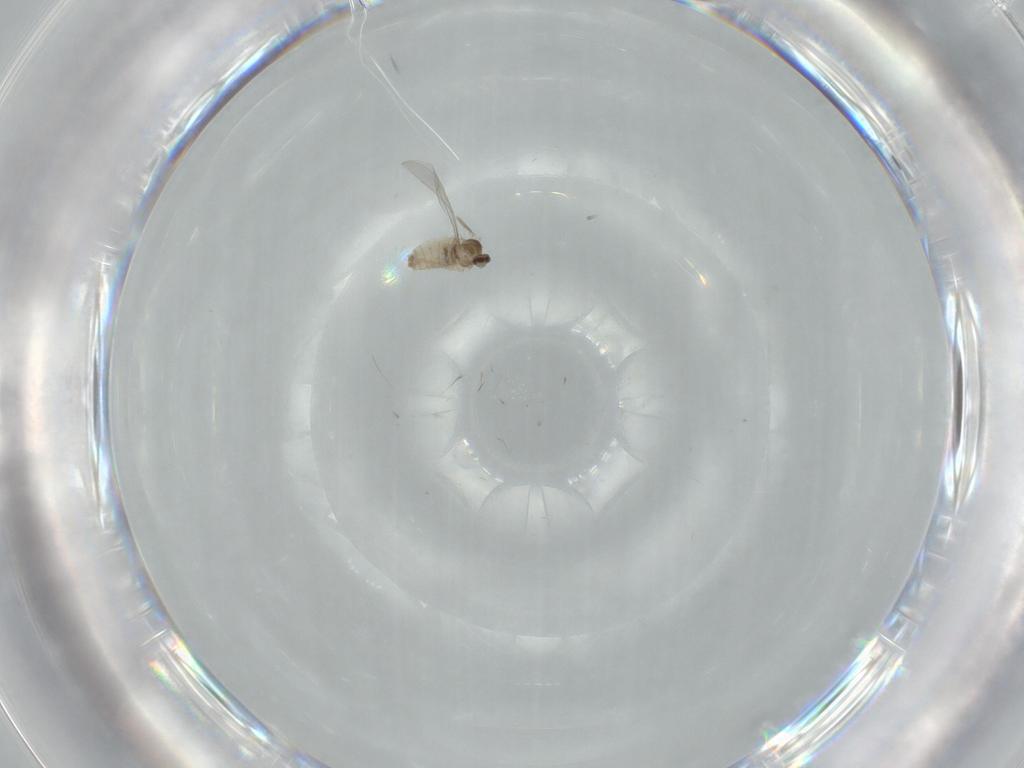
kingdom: Animalia
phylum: Arthropoda
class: Insecta
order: Diptera
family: Cecidomyiidae
